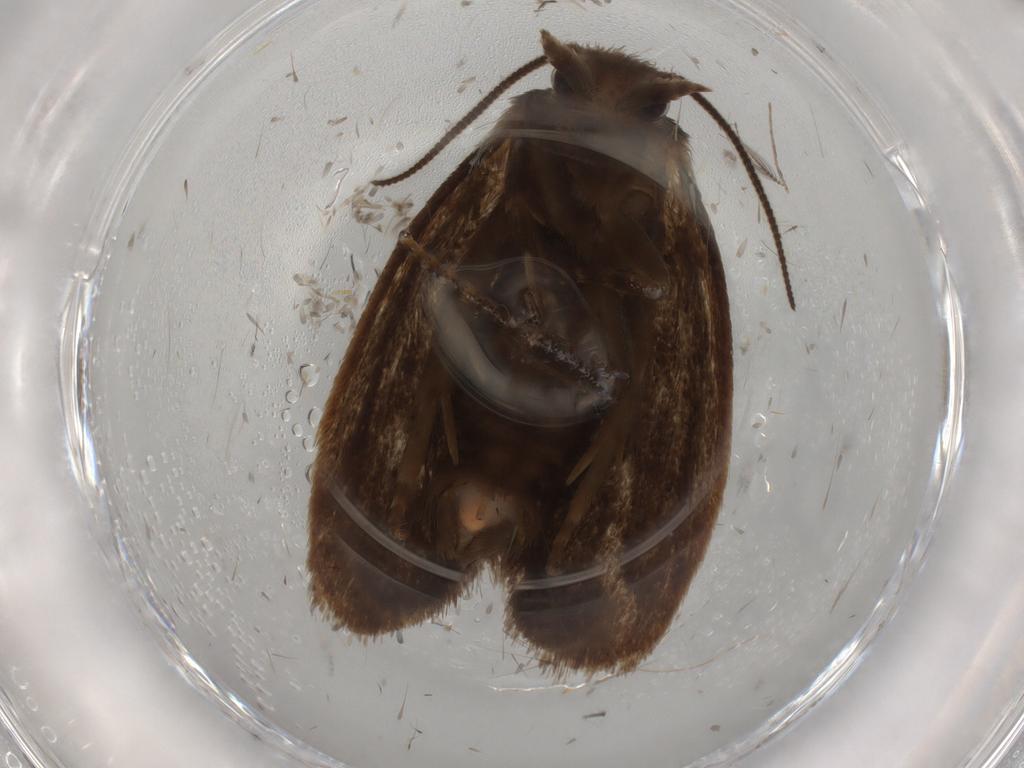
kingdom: Animalia
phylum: Arthropoda
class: Insecta
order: Lepidoptera
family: Tineidae
